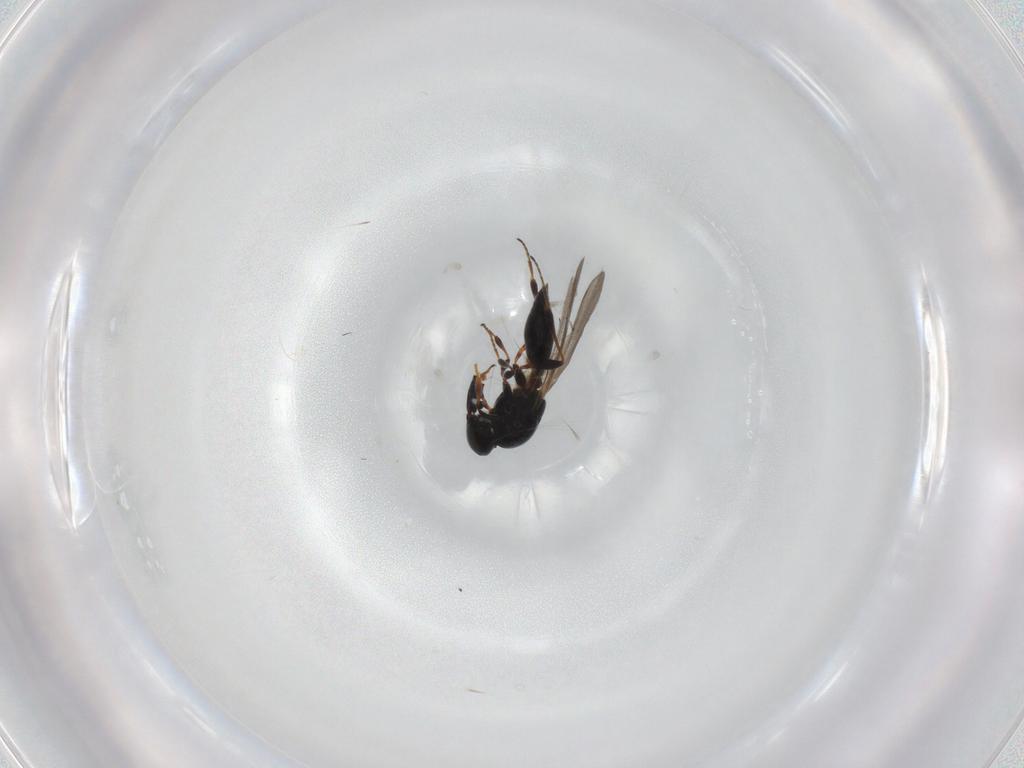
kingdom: Animalia
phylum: Arthropoda
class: Insecta
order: Hymenoptera
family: Platygastridae
